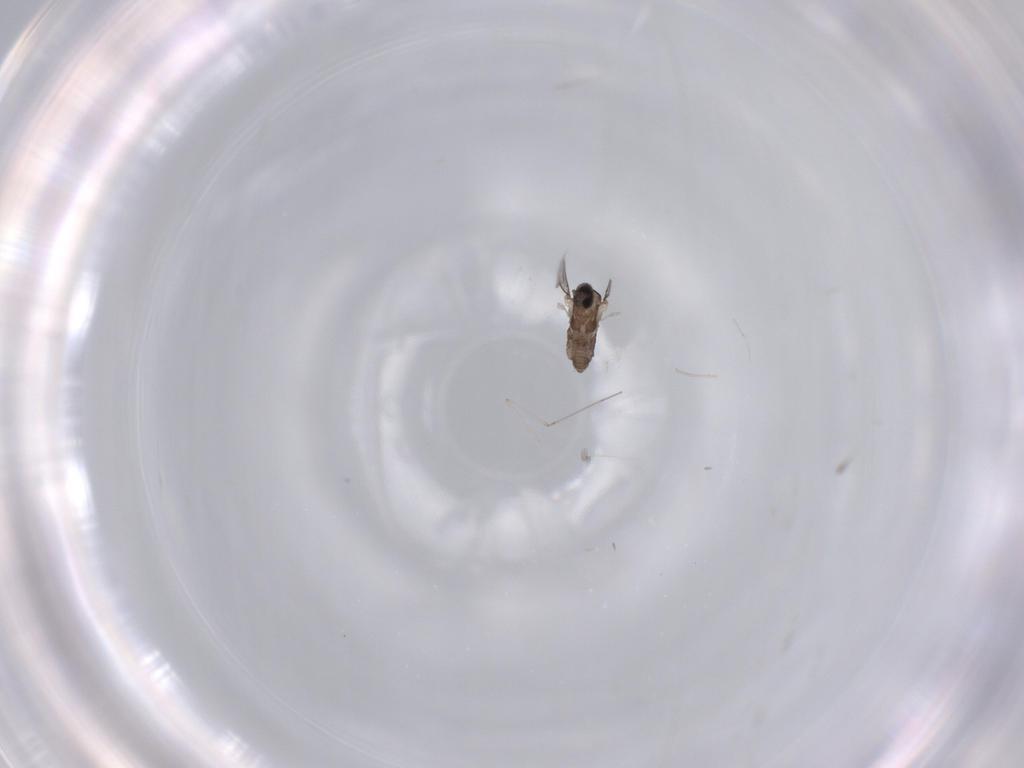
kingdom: Animalia
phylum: Arthropoda
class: Insecta
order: Diptera
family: Cecidomyiidae
